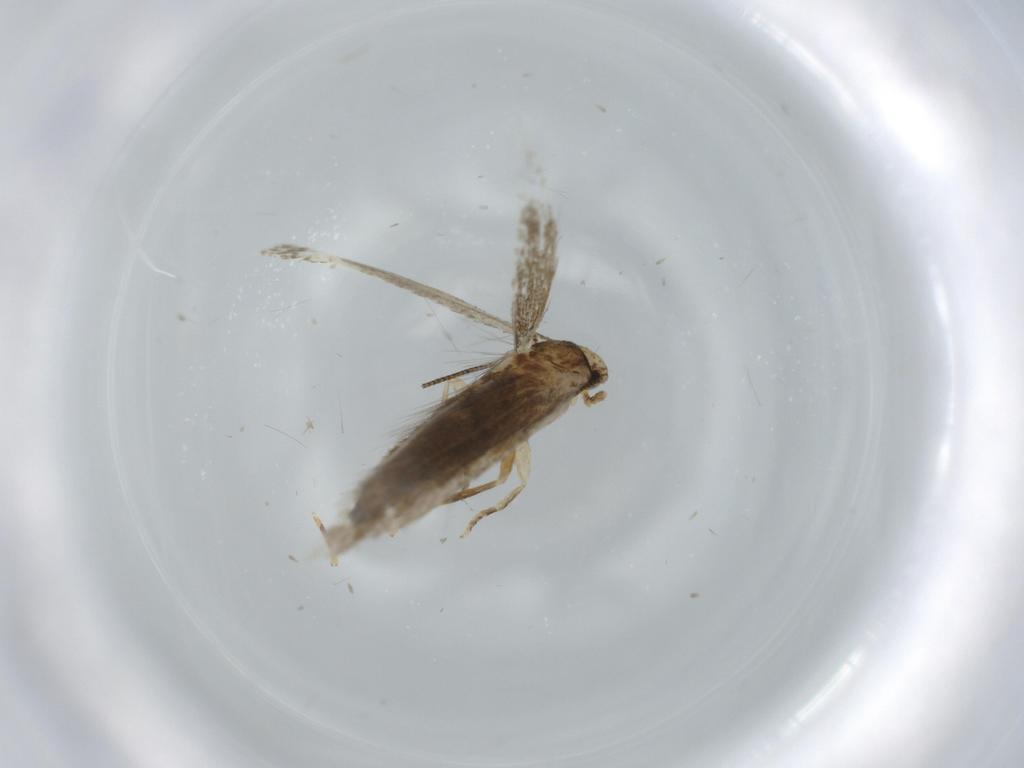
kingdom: Animalia
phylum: Arthropoda
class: Insecta
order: Lepidoptera
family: Tineidae
